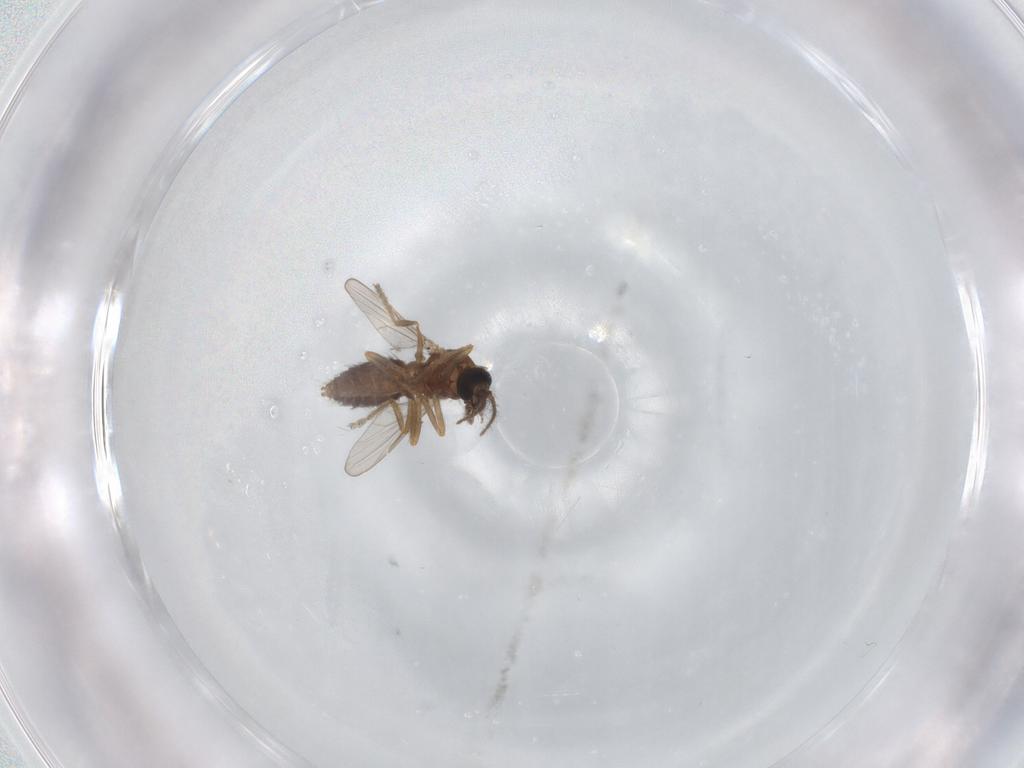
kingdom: Animalia
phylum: Arthropoda
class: Insecta
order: Diptera
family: Ceratopogonidae
